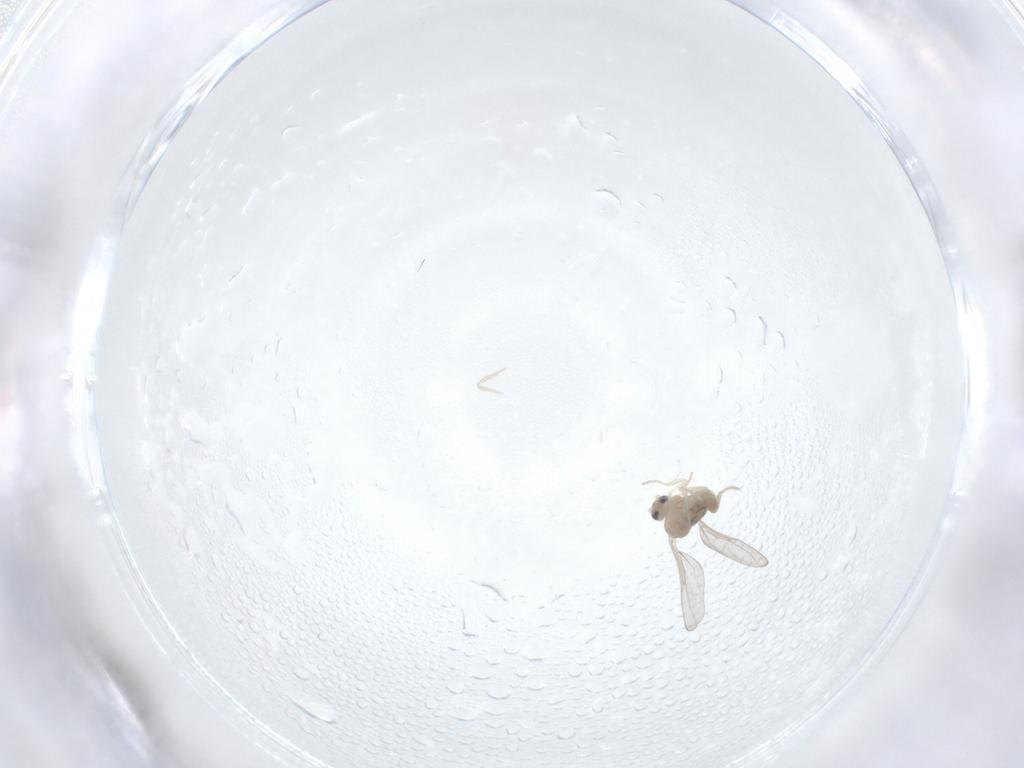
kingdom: Animalia
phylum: Arthropoda
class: Insecta
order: Diptera
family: Cecidomyiidae
